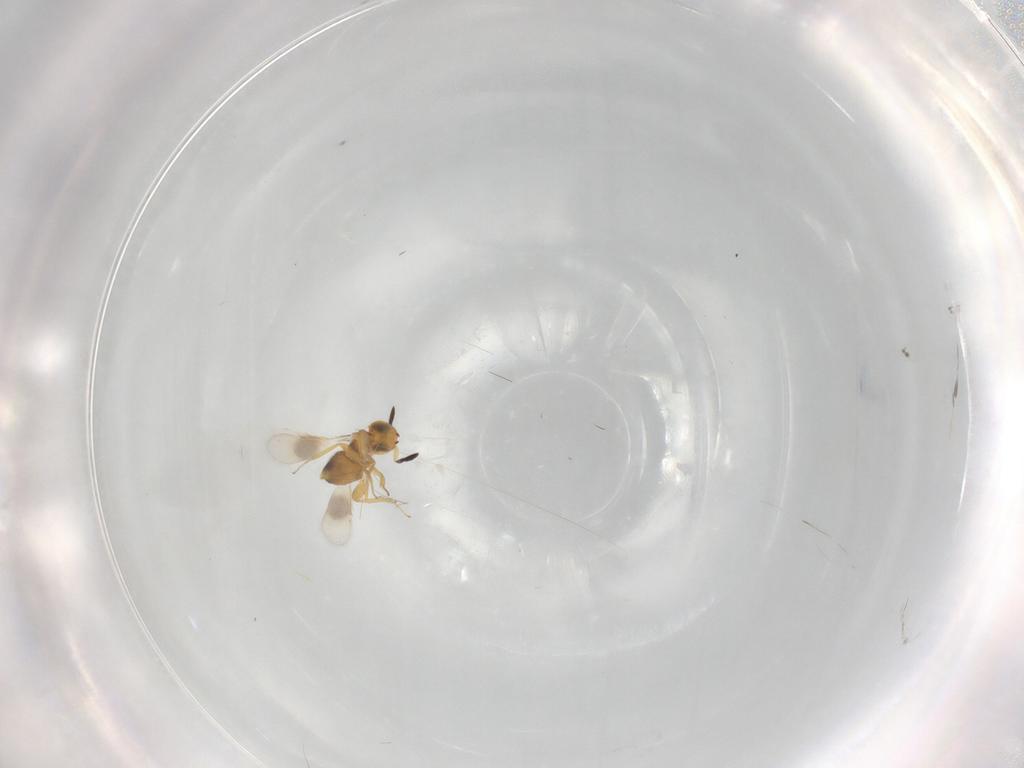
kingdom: Animalia
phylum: Arthropoda
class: Insecta
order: Hymenoptera
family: Encyrtidae
